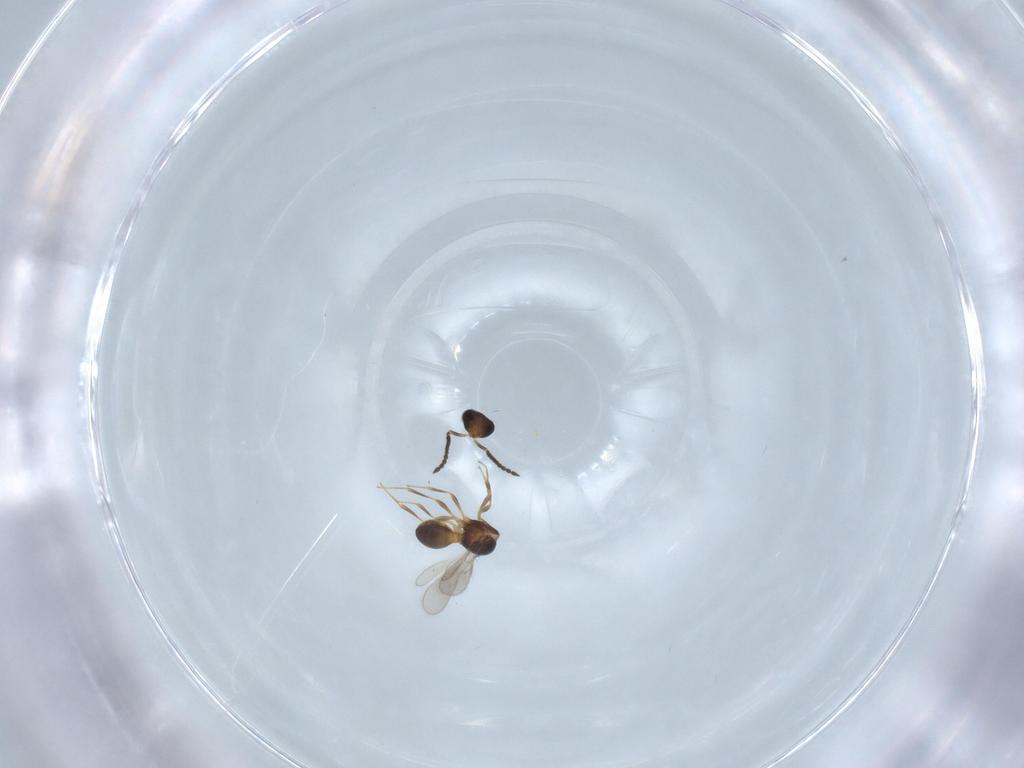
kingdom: Animalia
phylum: Arthropoda
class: Insecta
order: Hymenoptera
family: Scelionidae
